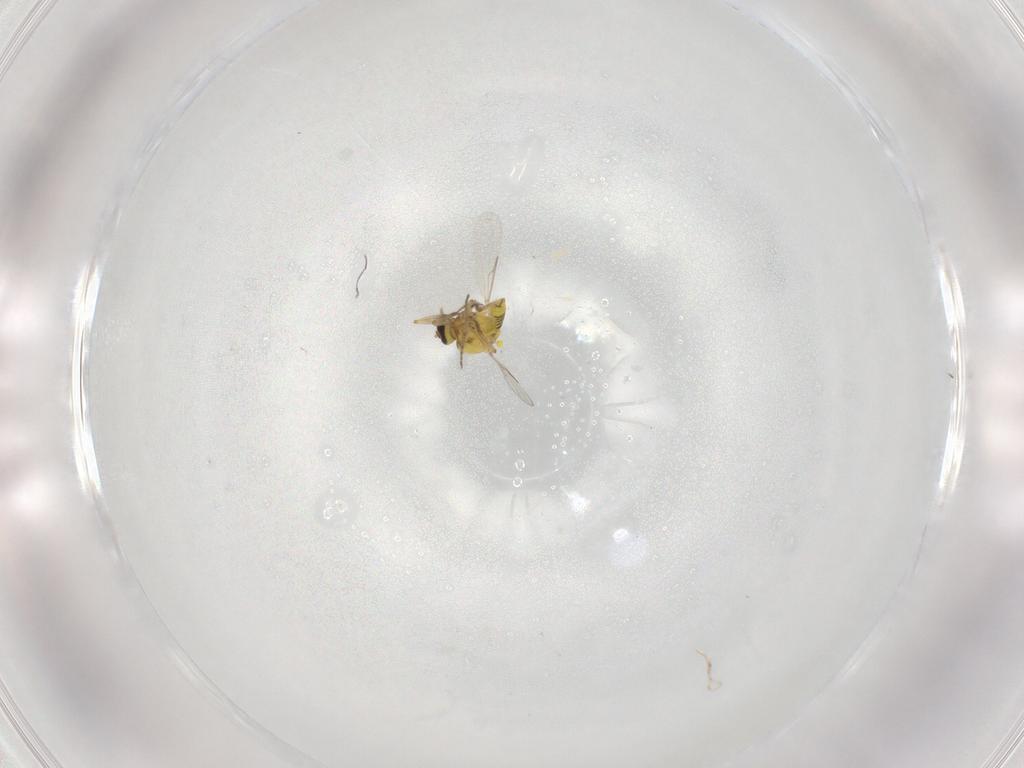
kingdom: Animalia
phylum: Arthropoda
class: Insecta
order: Diptera
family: Ceratopogonidae
